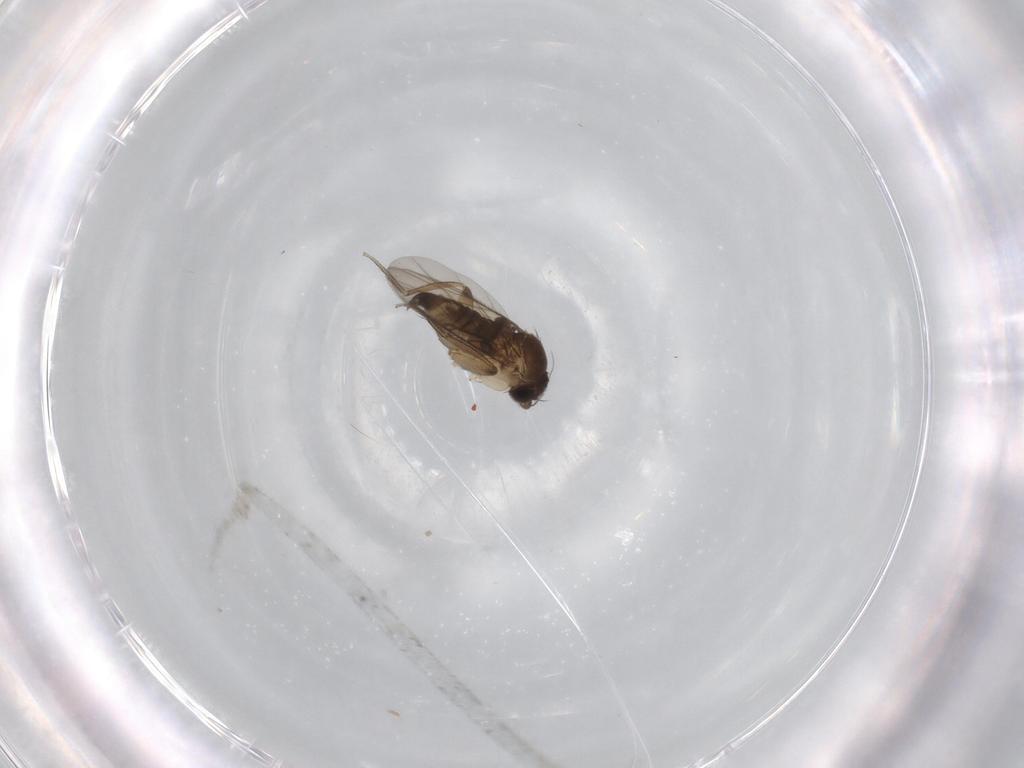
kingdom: Animalia
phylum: Arthropoda
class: Insecta
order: Diptera
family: Phoridae
